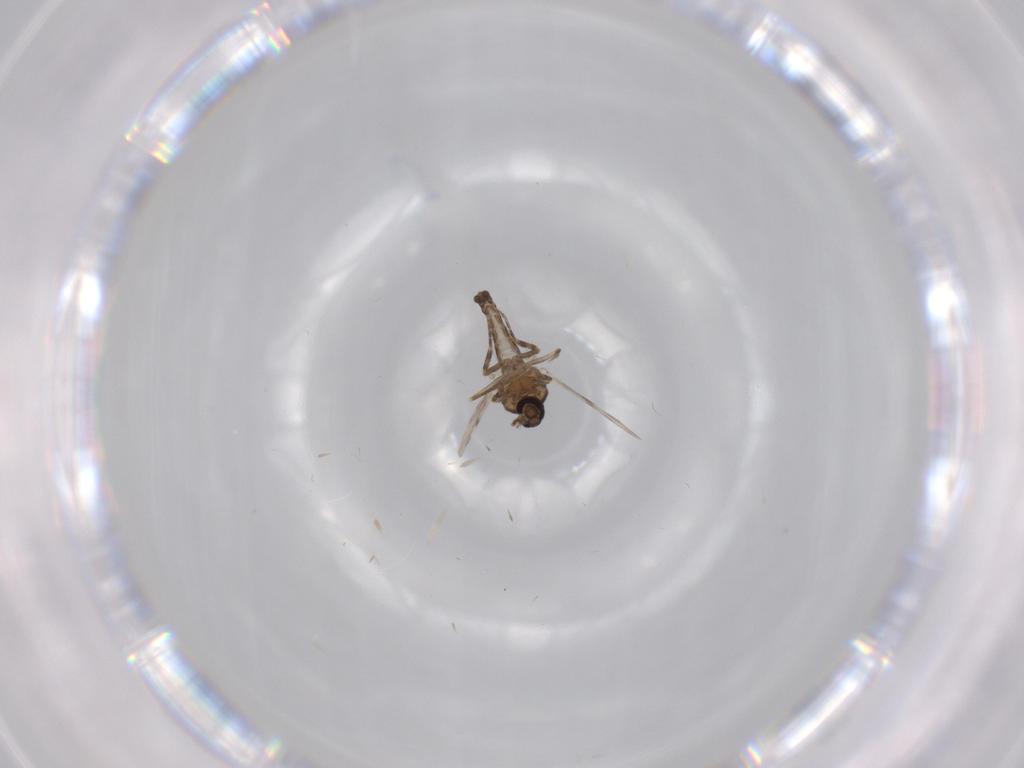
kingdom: Animalia
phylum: Arthropoda
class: Insecta
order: Diptera
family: Ceratopogonidae
